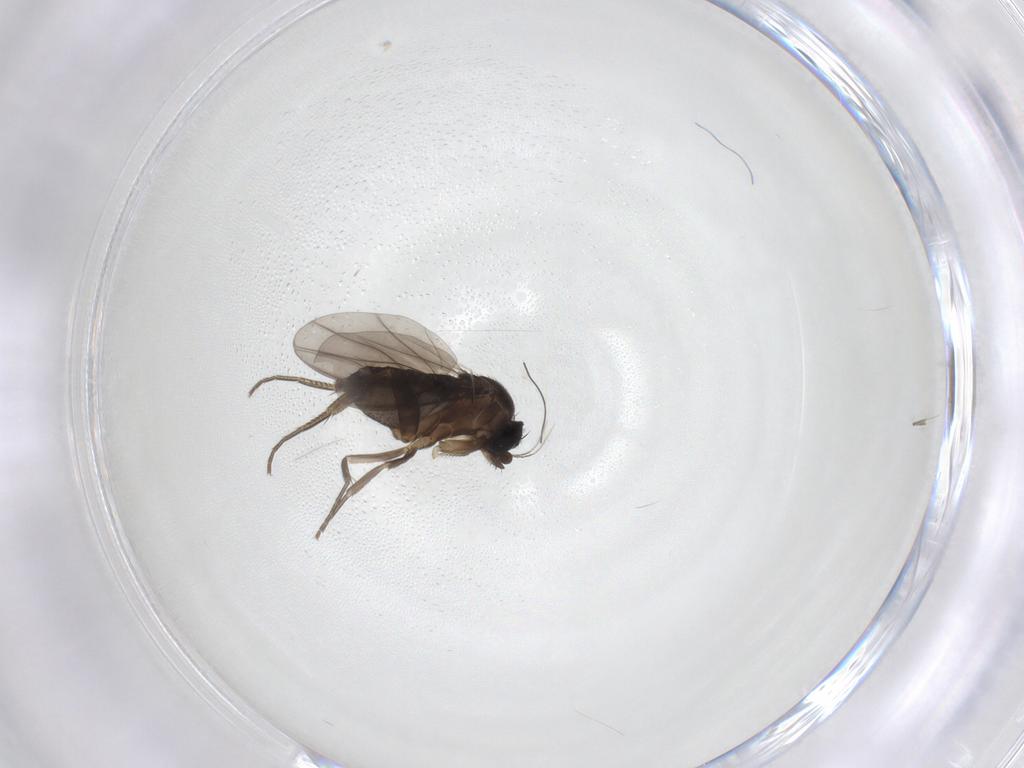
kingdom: Animalia
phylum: Arthropoda
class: Insecta
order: Diptera
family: Phoridae
